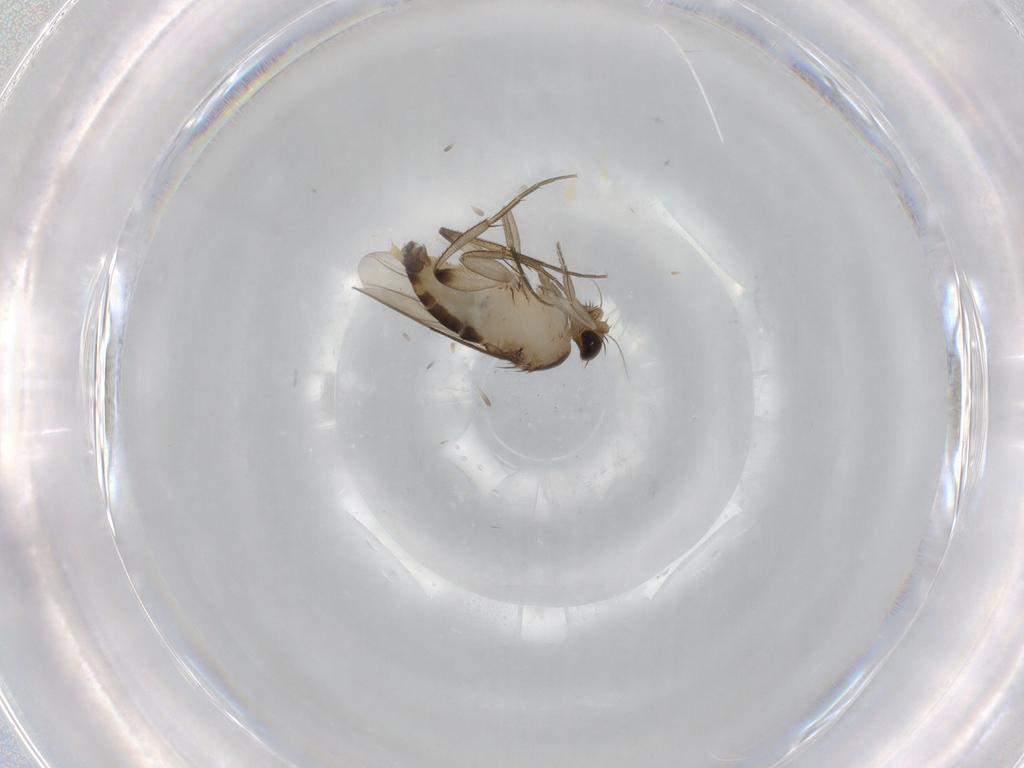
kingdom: Animalia
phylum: Arthropoda
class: Insecta
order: Diptera
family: Phoridae
